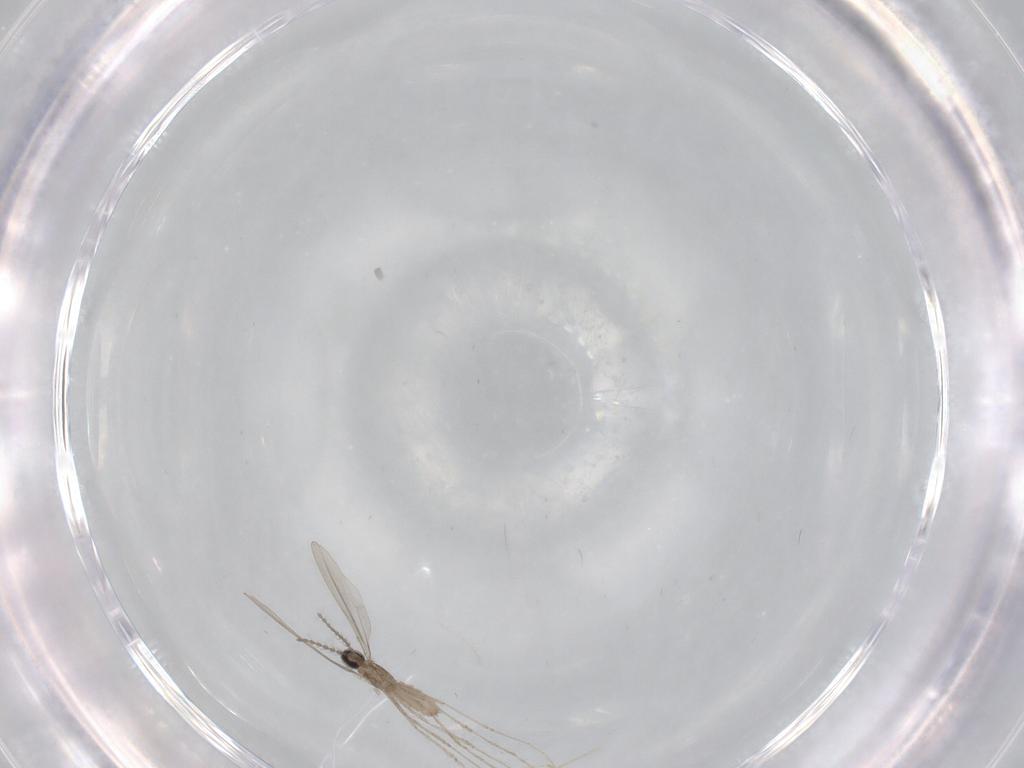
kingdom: Animalia
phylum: Arthropoda
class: Insecta
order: Diptera
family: Cecidomyiidae
